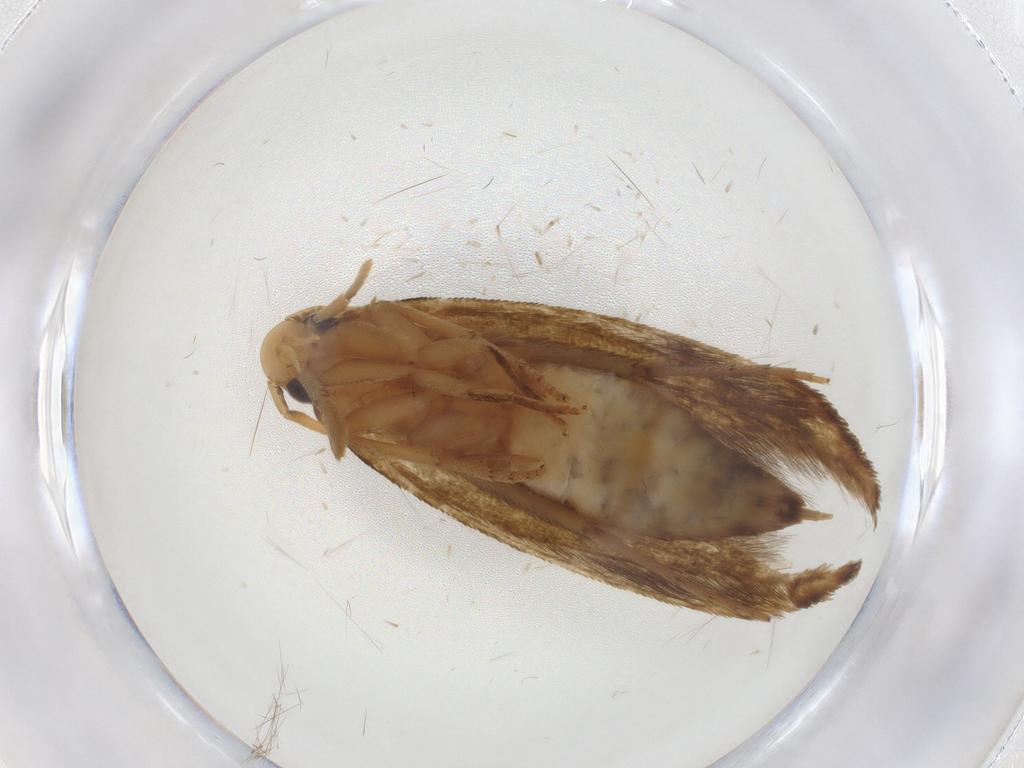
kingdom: Animalia
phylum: Arthropoda
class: Insecta
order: Lepidoptera
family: Tineidae
